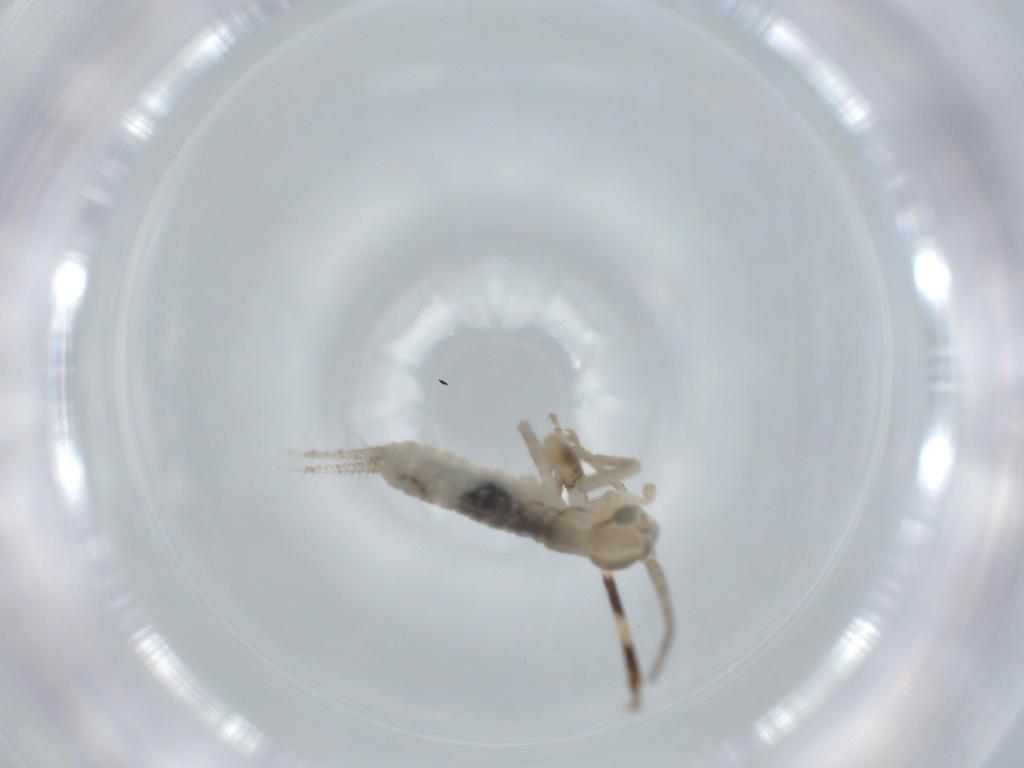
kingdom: Animalia
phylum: Arthropoda
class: Insecta
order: Orthoptera
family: Gryllidae
